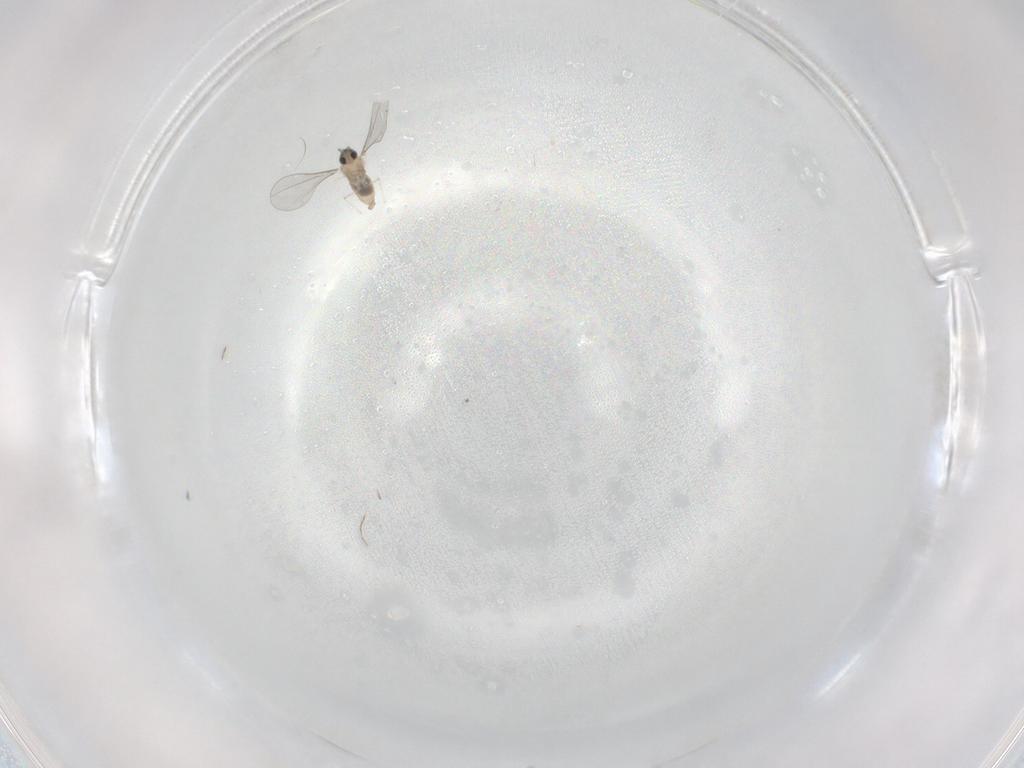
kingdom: Animalia
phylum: Arthropoda
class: Insecta
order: Diptera
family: Cecidomyiidae
